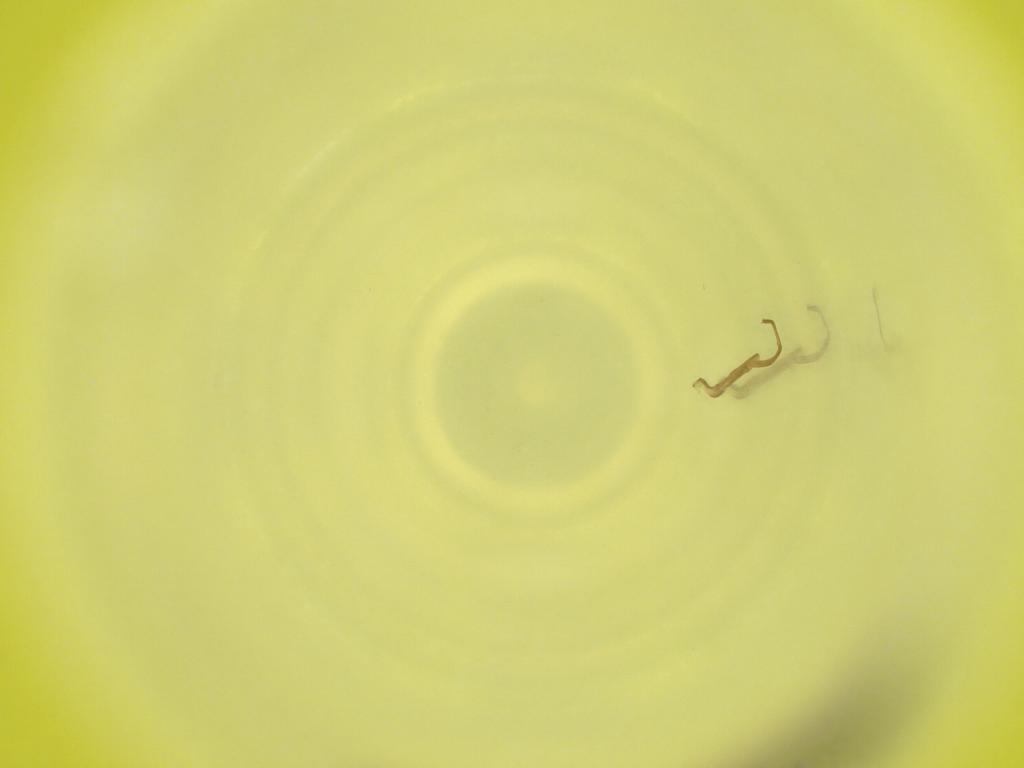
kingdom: Animalia
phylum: Arthropoda
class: Insecta
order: Diptera
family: Cecidomyiidae
